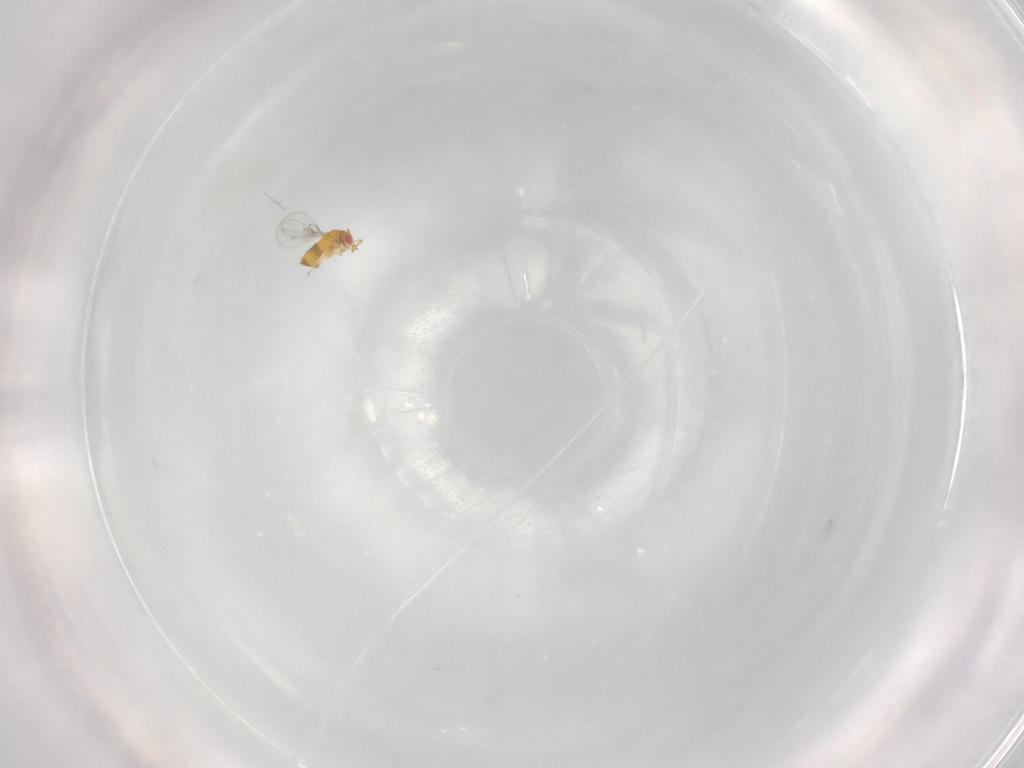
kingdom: Animalia
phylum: Arthropoda
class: Insecta
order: Hymenoptera
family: Trichogrammatidae
